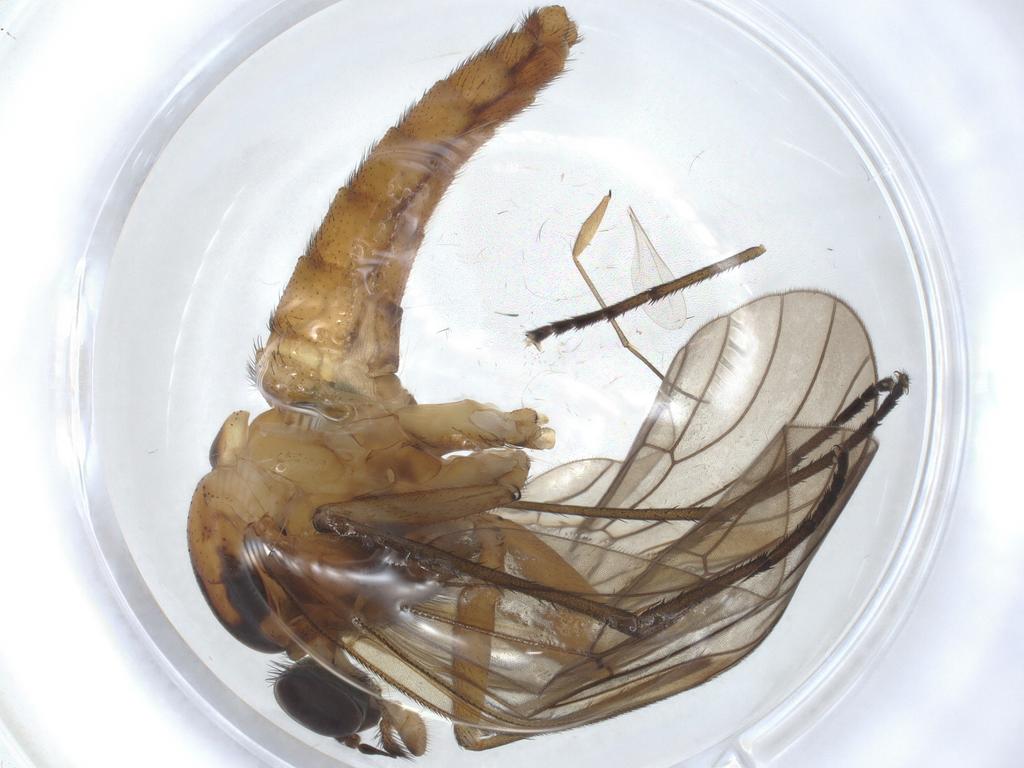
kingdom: Animalia
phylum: Arthropoda
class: Insecta
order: Diptera
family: Rhagionidae
